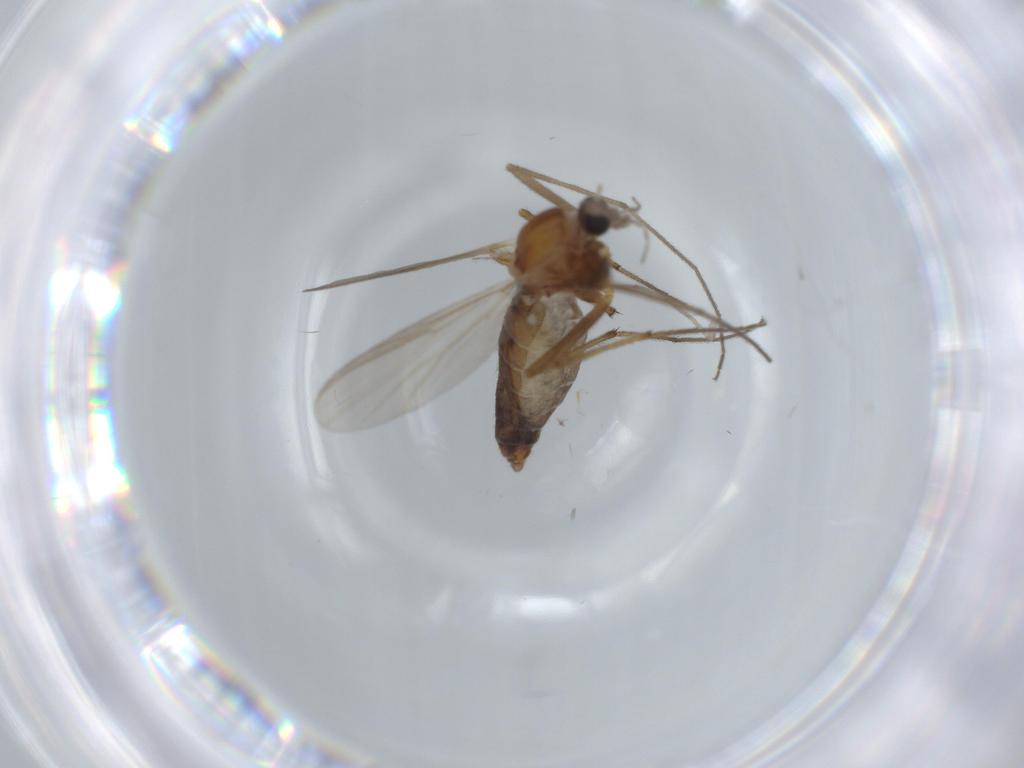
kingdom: Animalia
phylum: Arthropoda
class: Insecta
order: Diptera
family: Chironomidae
